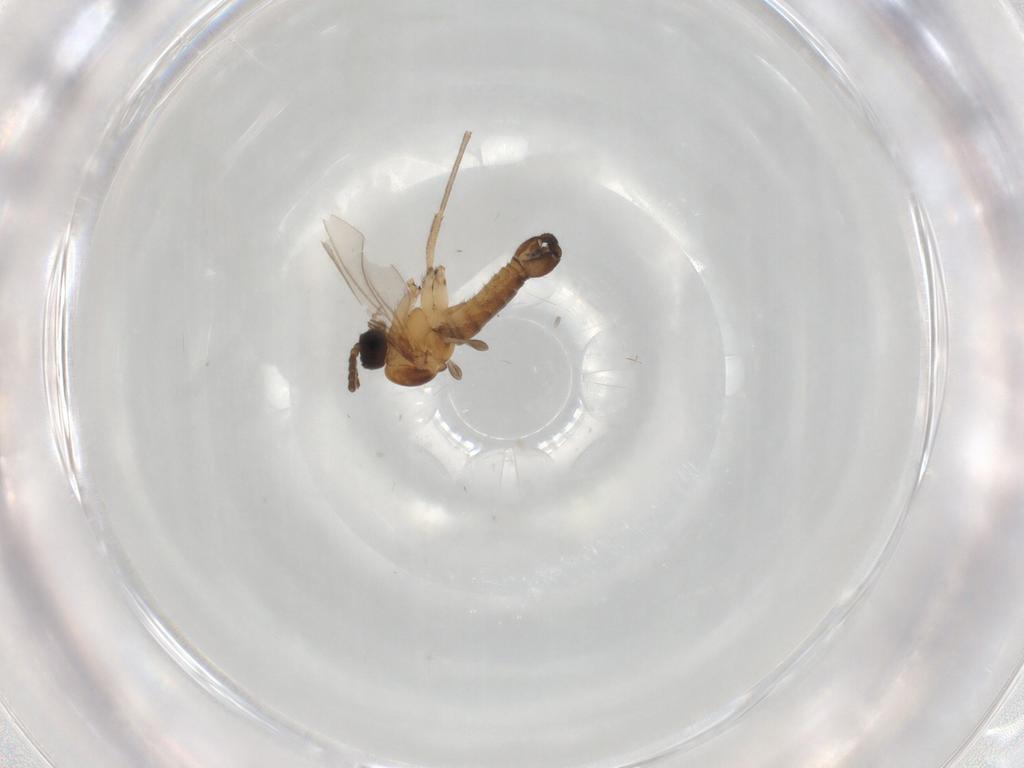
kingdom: Animalia
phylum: Arthropoda
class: Insecta
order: Diptera
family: Sciaridae
